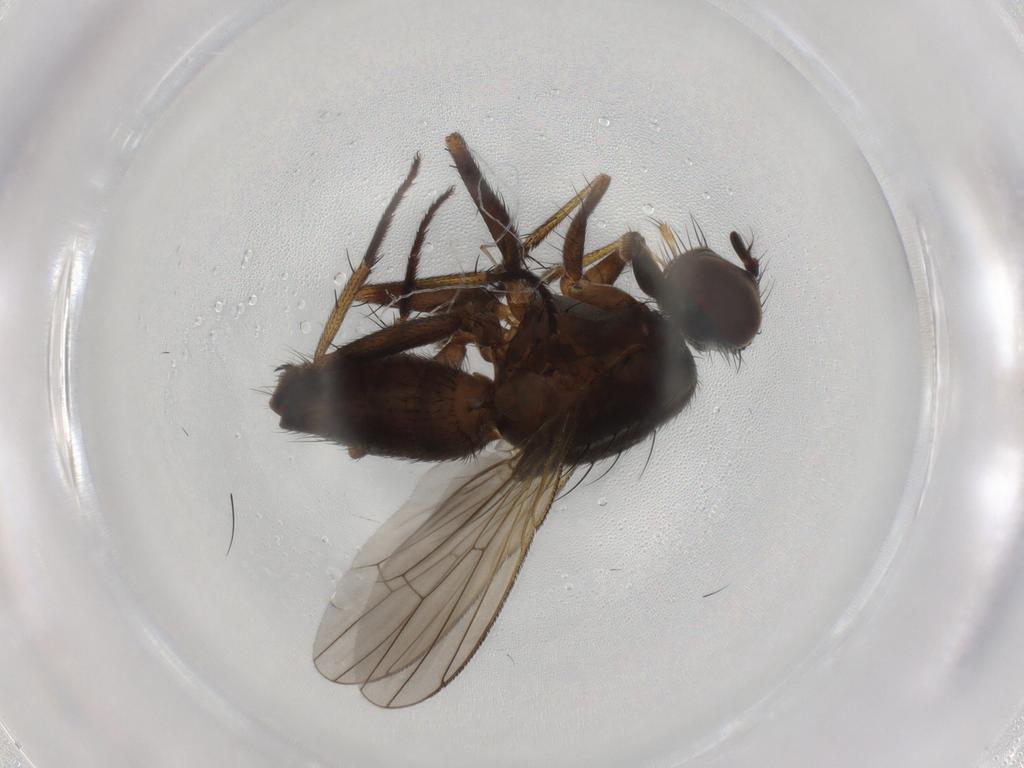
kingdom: Animalia
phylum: Arthropoda
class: Insecta
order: Diptera
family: Muscidae
